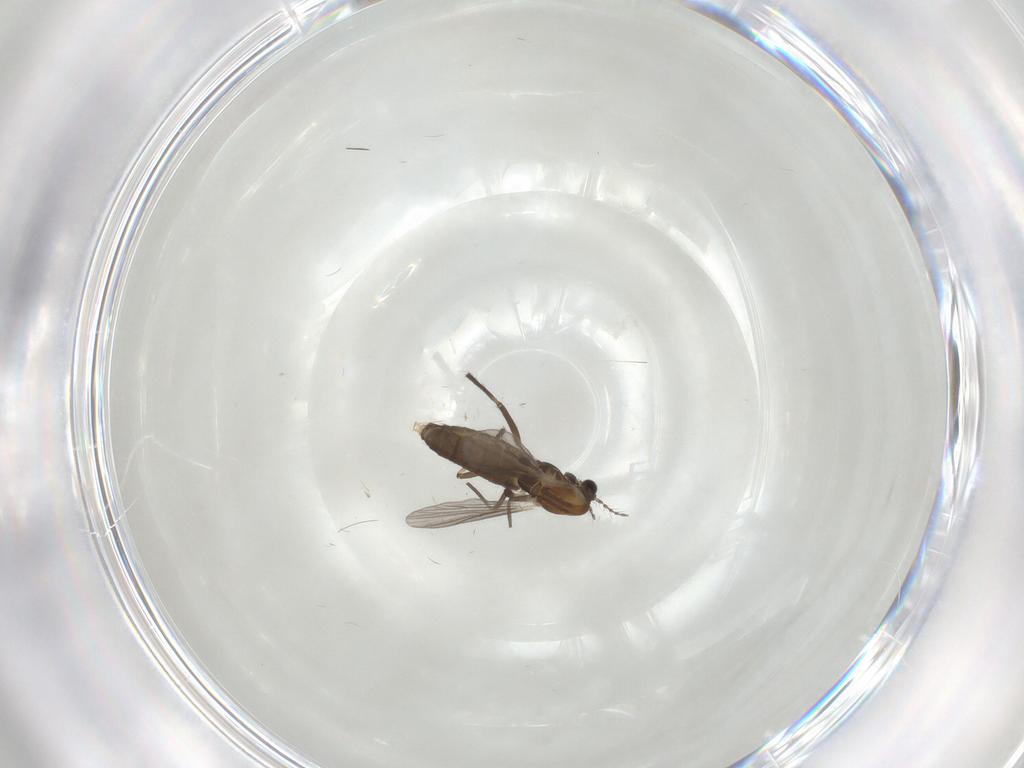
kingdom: Animalia
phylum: Arthropoda
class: Insecta
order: Diptera
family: Chironomidae
